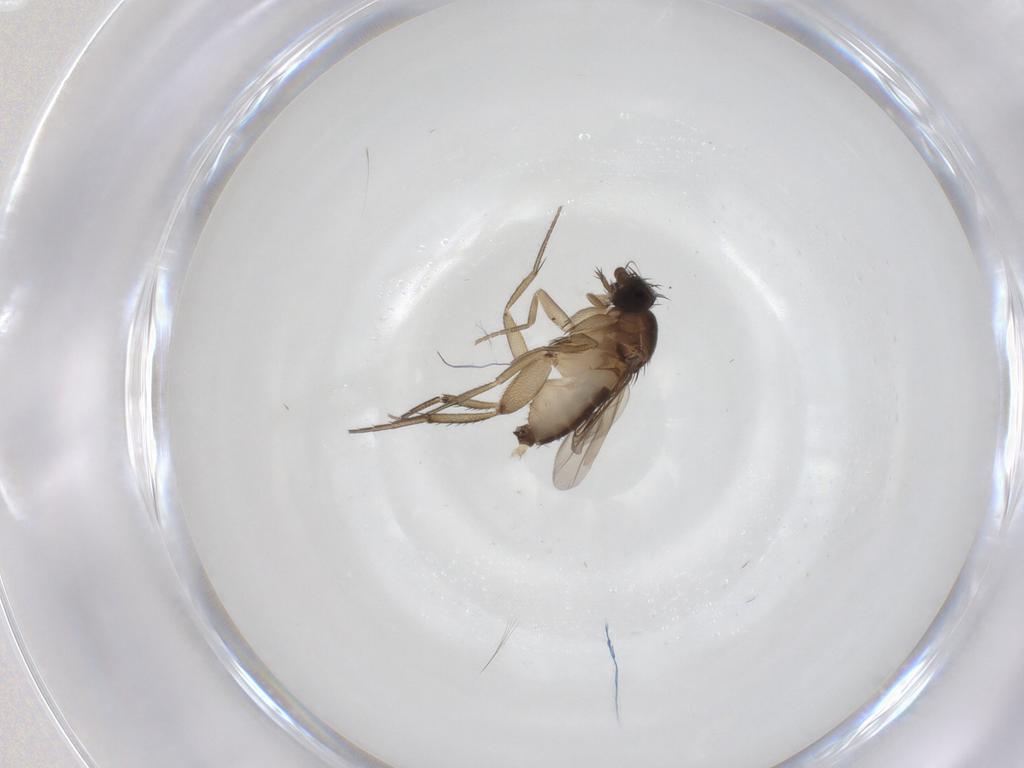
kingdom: Animalia
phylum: Arthropoda
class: Insecta
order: Diptera
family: Phoridae
